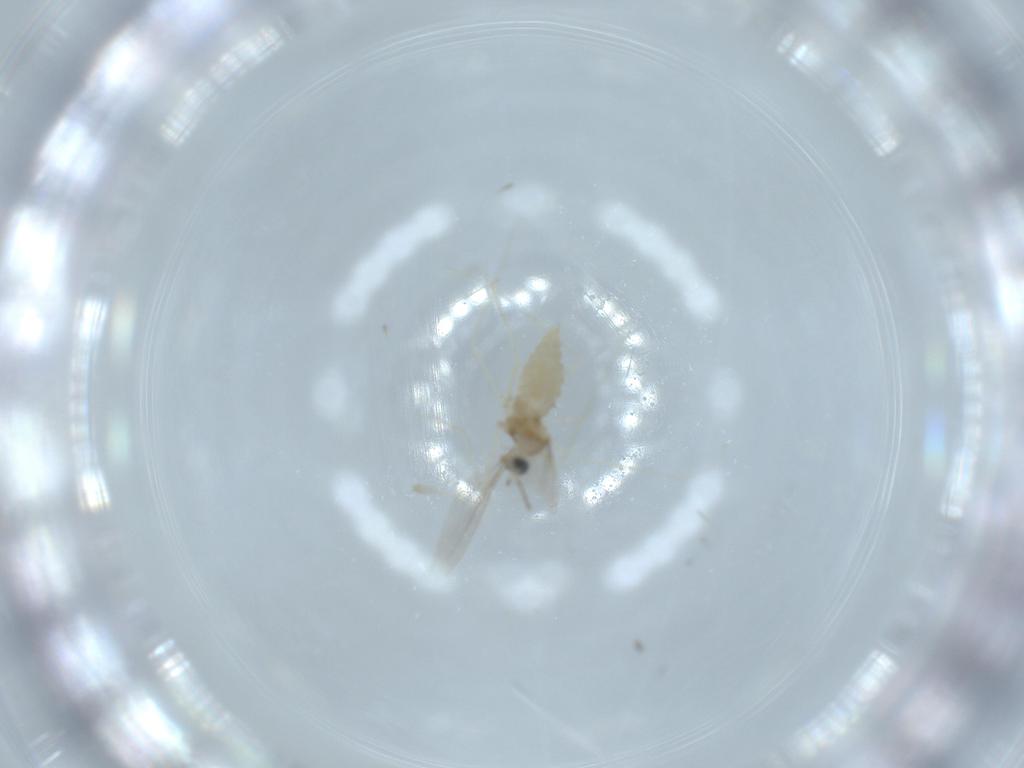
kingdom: Animalia
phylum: Arthropoda
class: Insecta
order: Diptera
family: Cecidomyiidae
